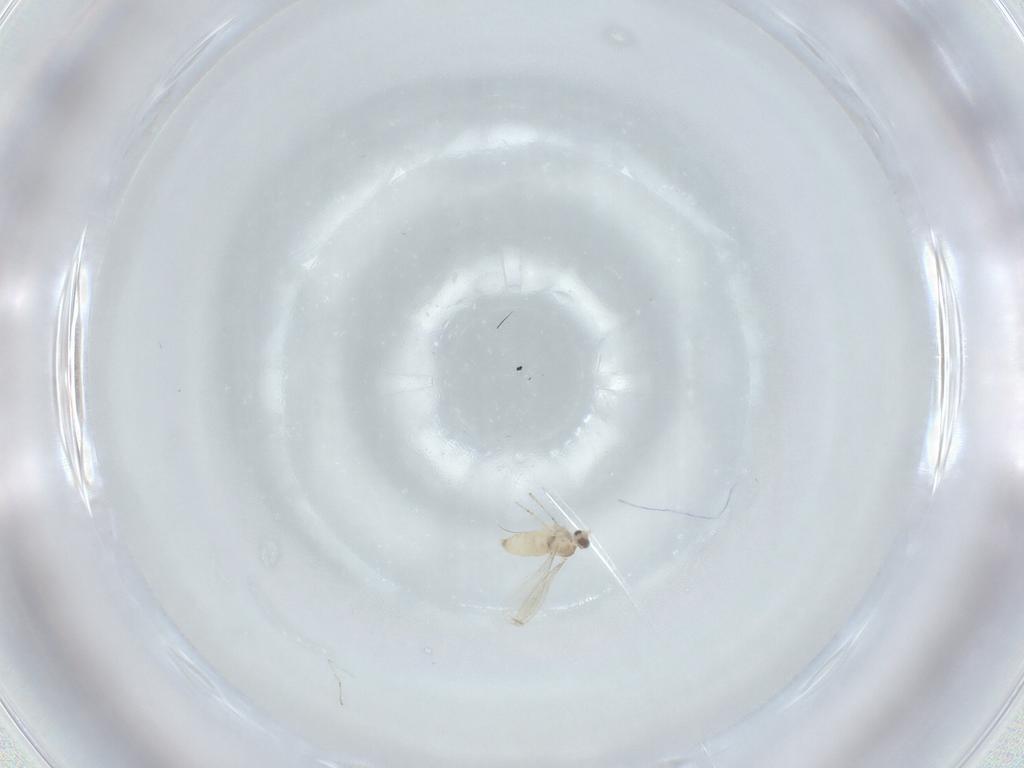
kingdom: Animalia
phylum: Arthropoda
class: Insecta
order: Diptera
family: Cecidomyiidae
